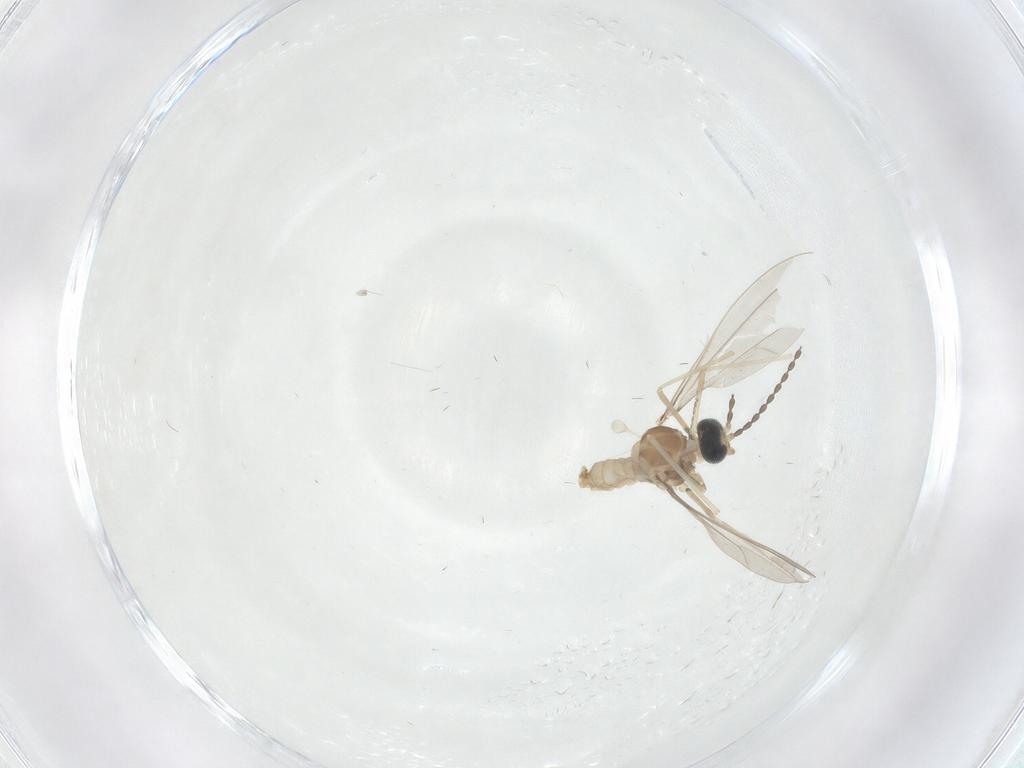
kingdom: Animalia
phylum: Arthropoda
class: Insecta
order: Diptera
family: Cecidomyiidae
